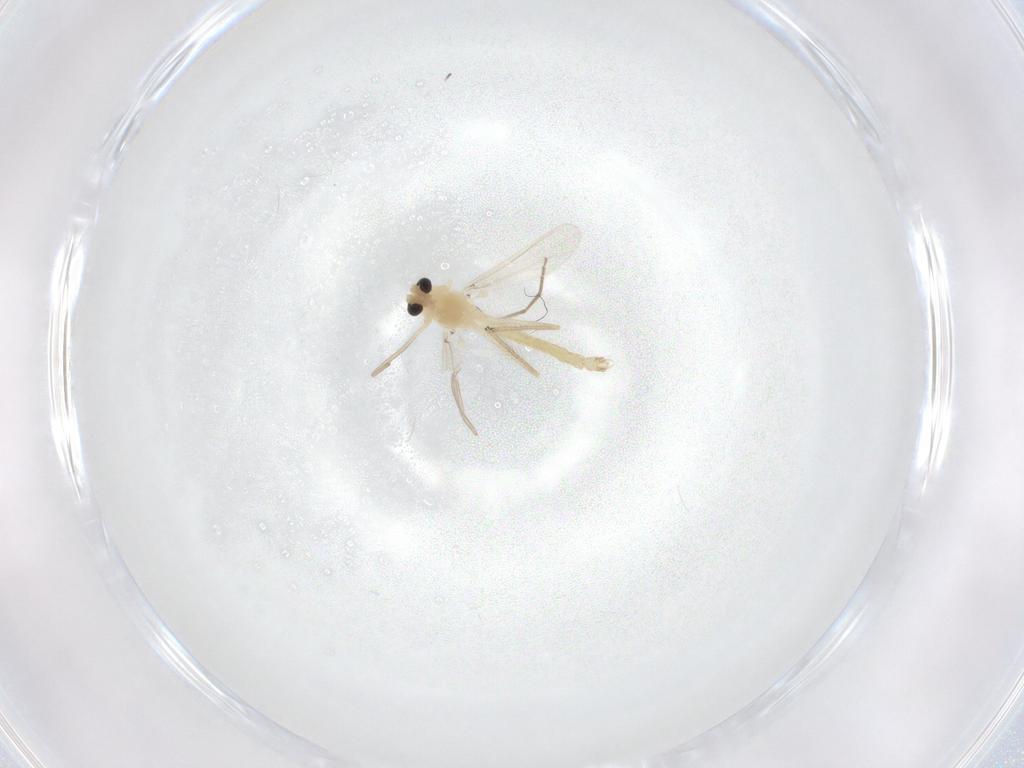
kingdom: Animalia
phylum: Arthropoda
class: Insecta
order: Diptera
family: Chironomidae
